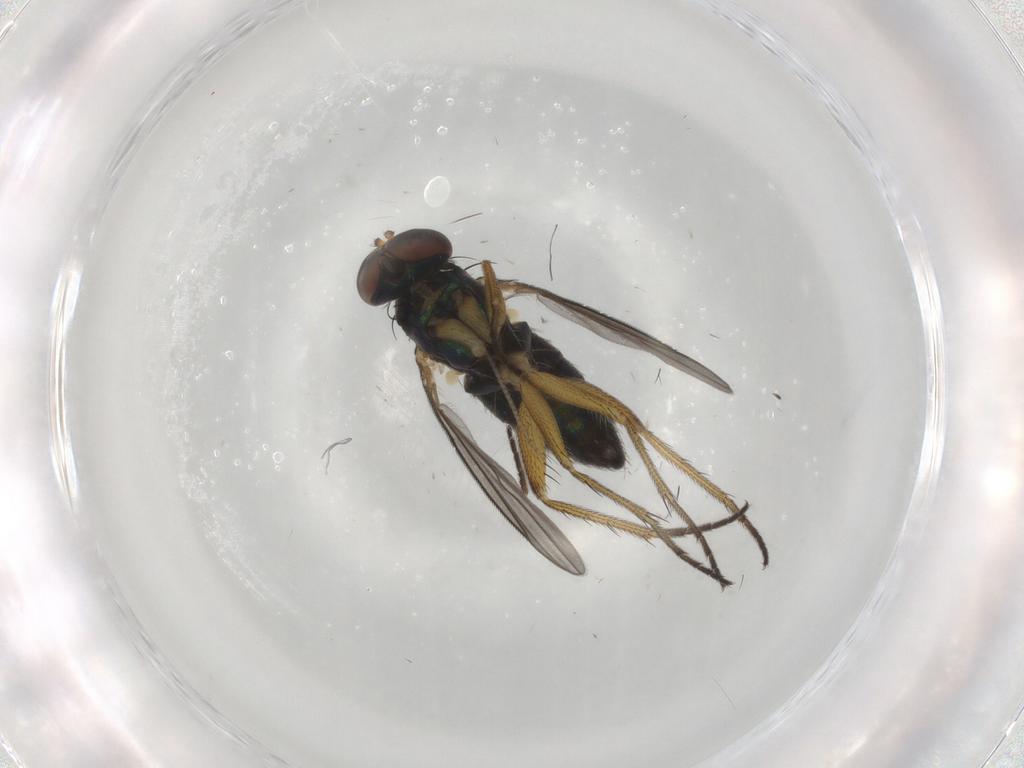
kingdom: Animalia
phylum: Arthropoda
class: Insecta
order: Diptera
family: Dolichopodidae
